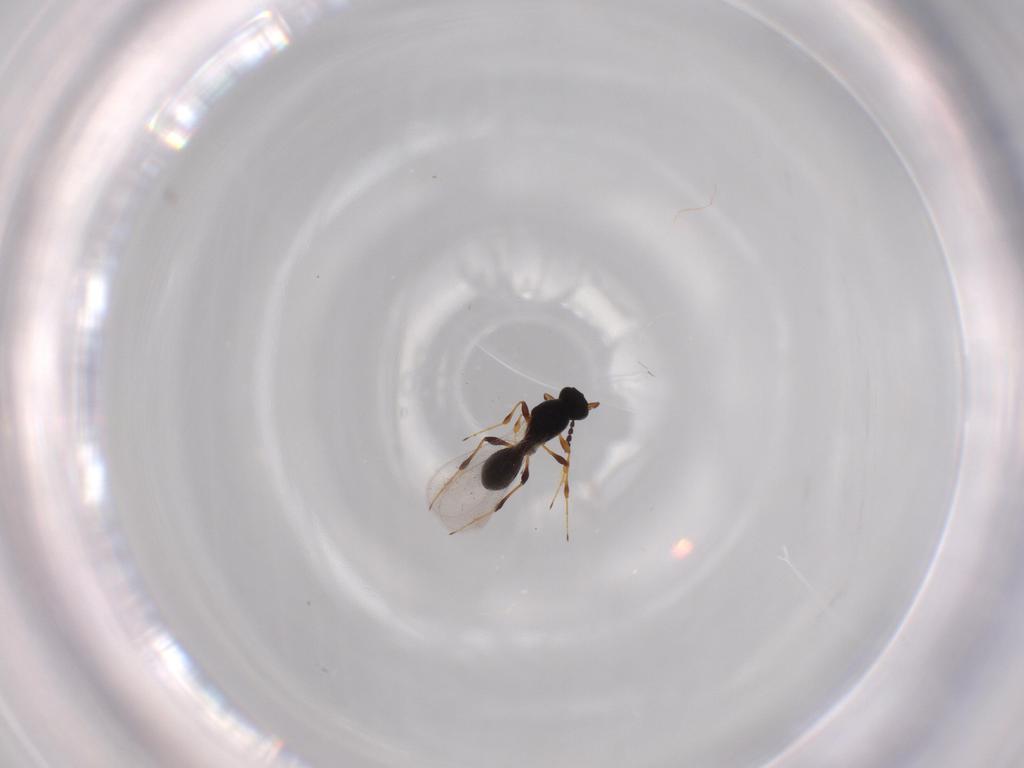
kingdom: Animalia
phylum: Arthropoda
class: Insecta
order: Hymenoptera
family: Platygastridae
